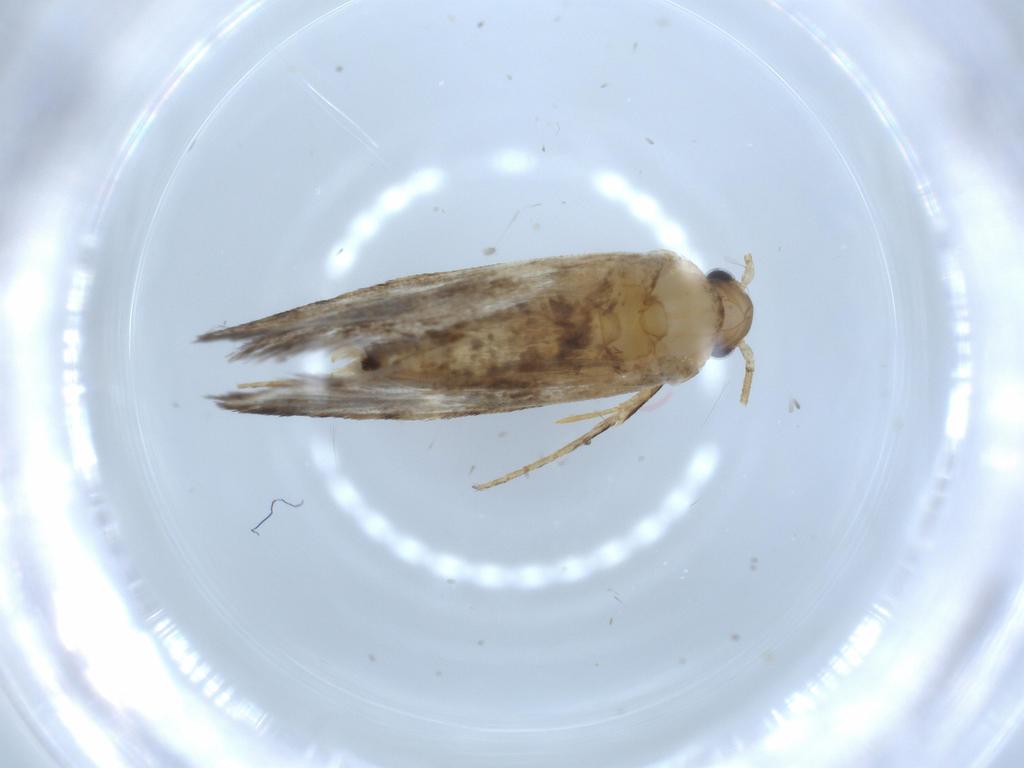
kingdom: Animalia
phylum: Arthropoda
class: Insecta
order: Lepidoptera
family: Tineidae
